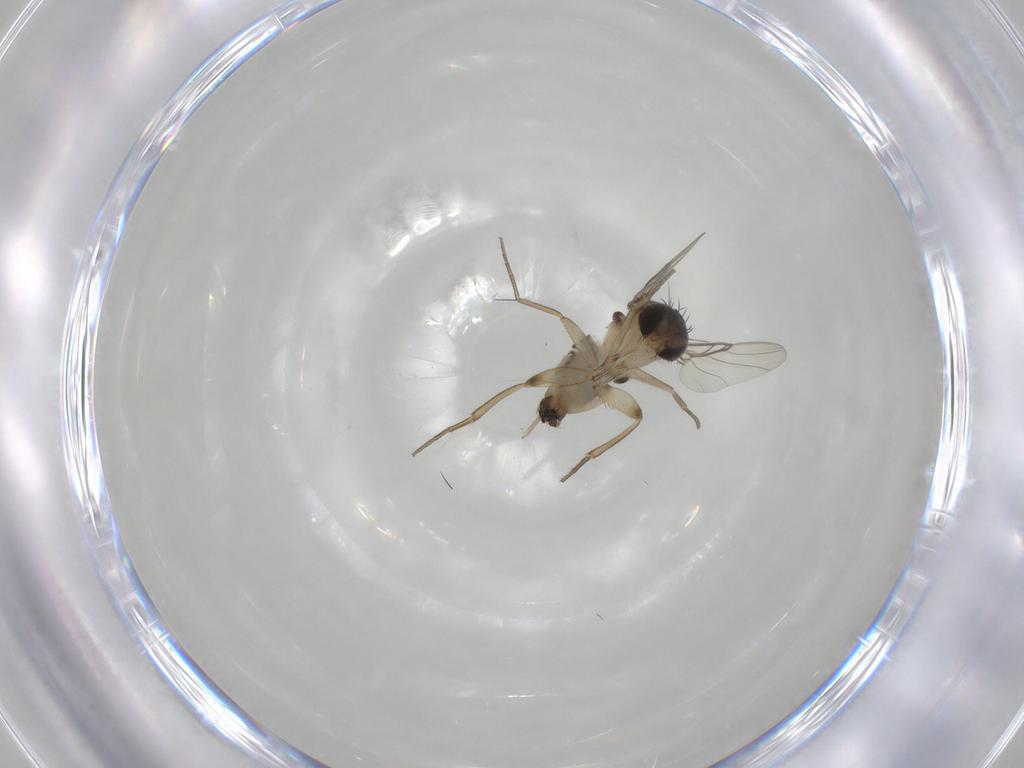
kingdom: Animalia
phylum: Arthropoda
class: Insecta
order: Diptera
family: Phoridae
